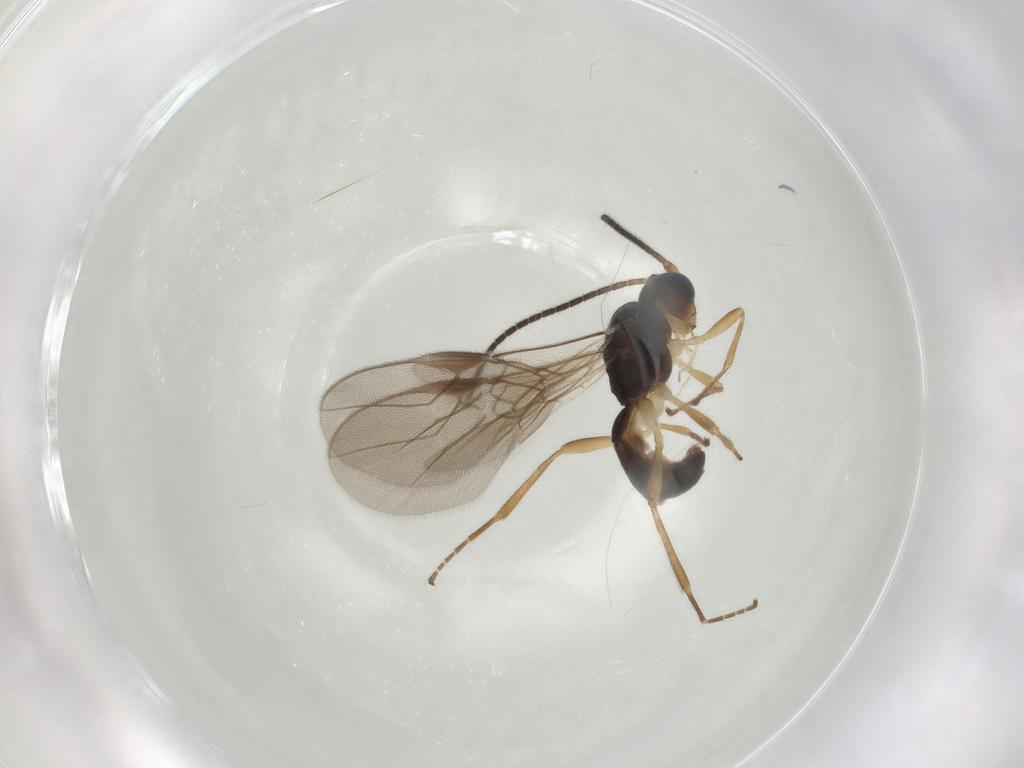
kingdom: Animalia
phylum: Arthropoda
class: Insecta
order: Hymenoptera
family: Braconidae
